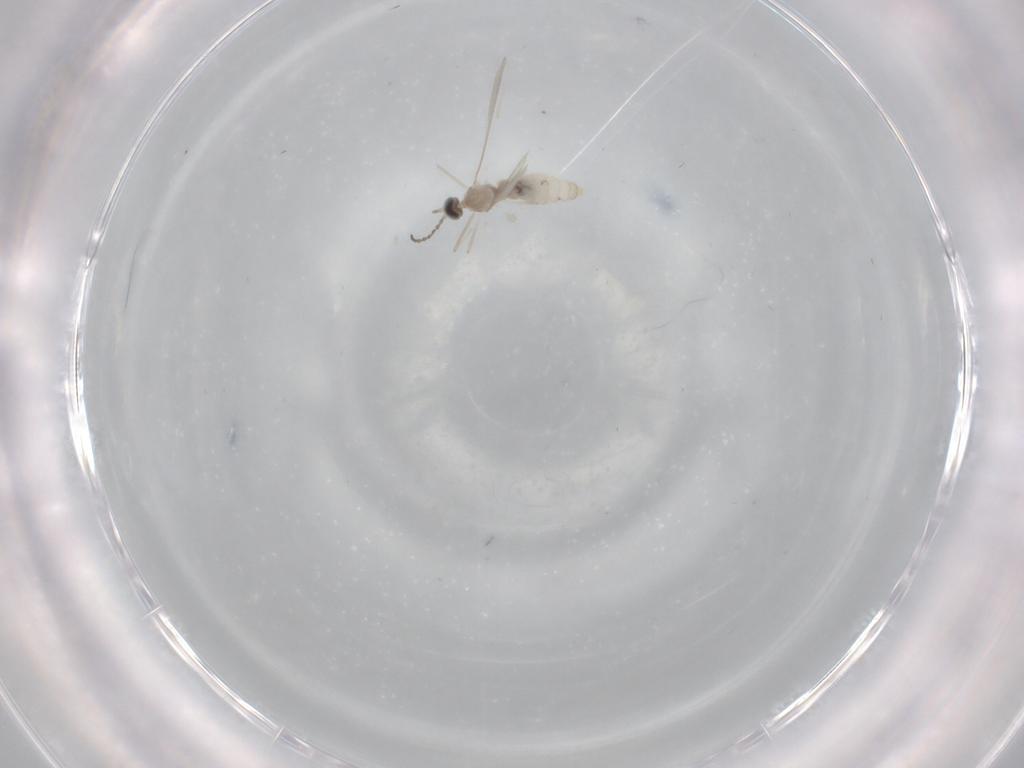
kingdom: Animalia
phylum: Arthropoda
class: Insecta
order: Diptera
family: Cecidomyiidae
